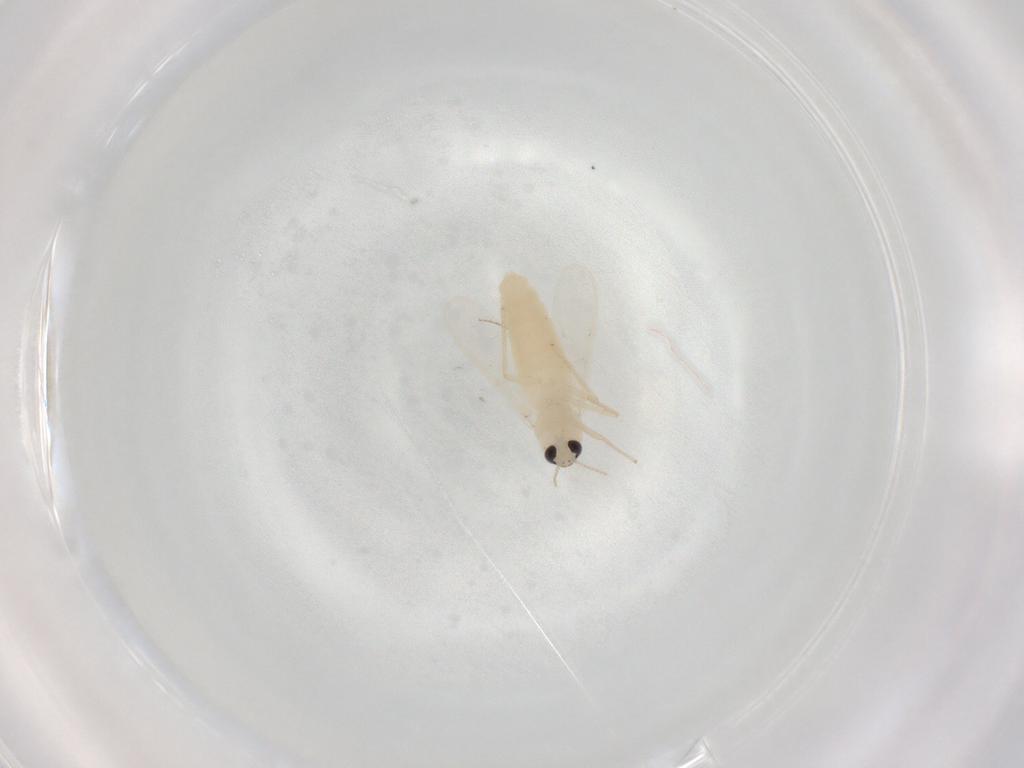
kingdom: Animalia
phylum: Arthropoda
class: Insecta
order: Diptera
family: Chironomidae
